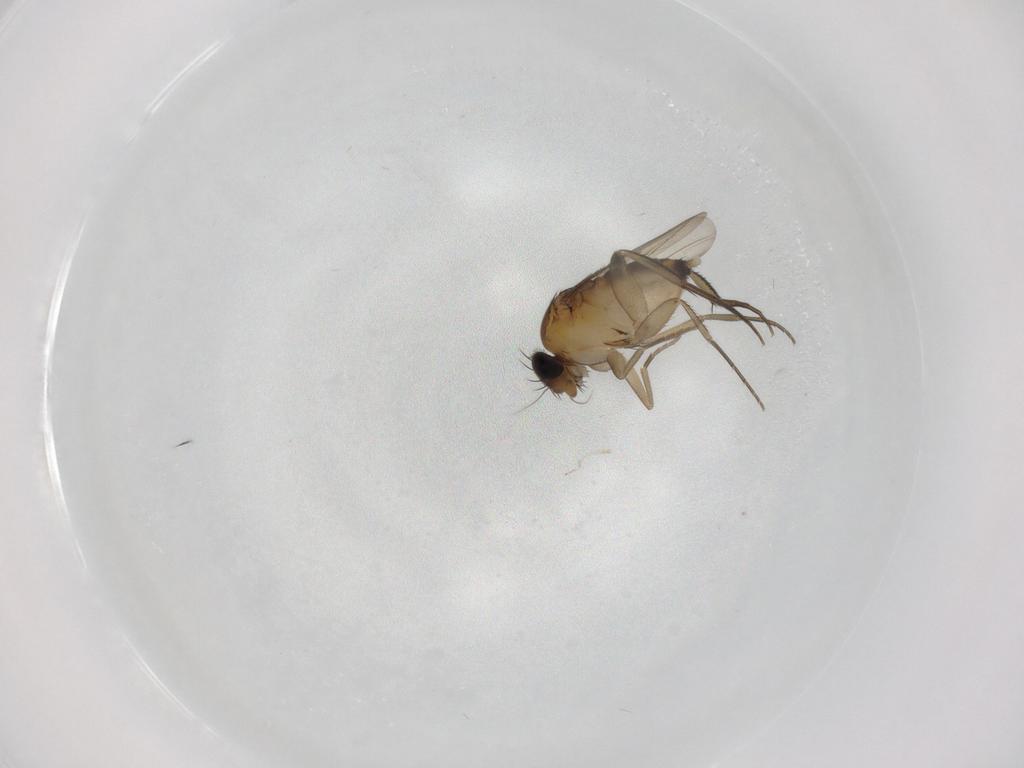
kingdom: Animalia
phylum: Arthropoda
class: Insecta
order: Diptera
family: Phoridae
